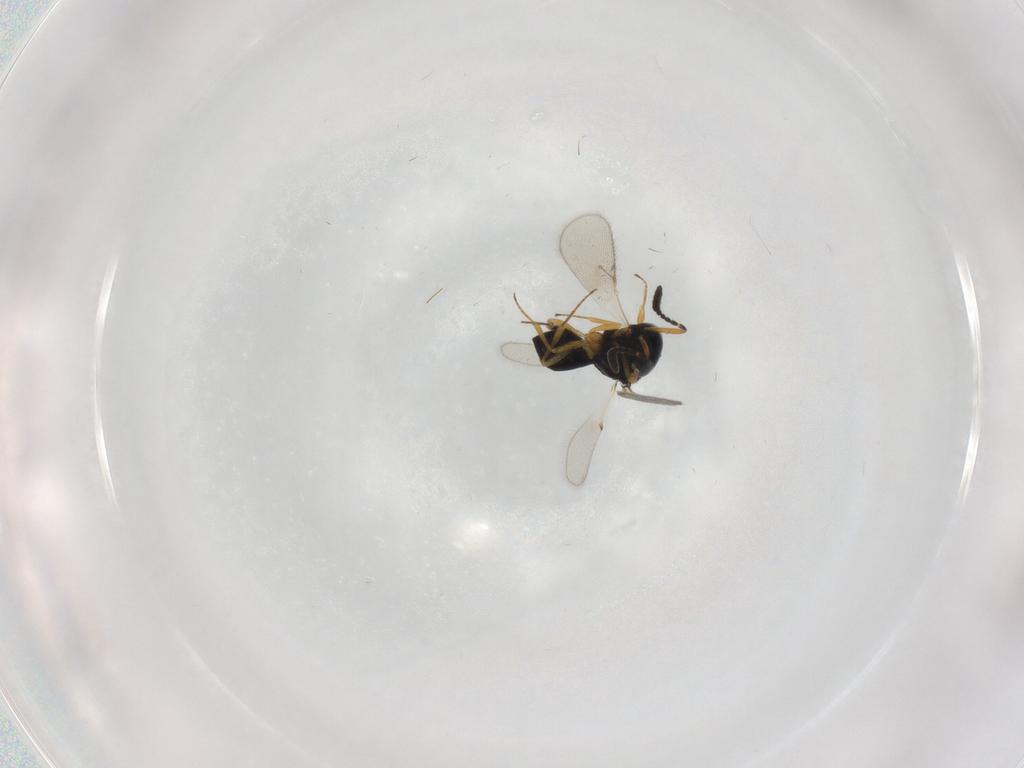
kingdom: Animalia
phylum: Arthropoda
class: Insecta
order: Hymenoptera
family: Scelionidae
